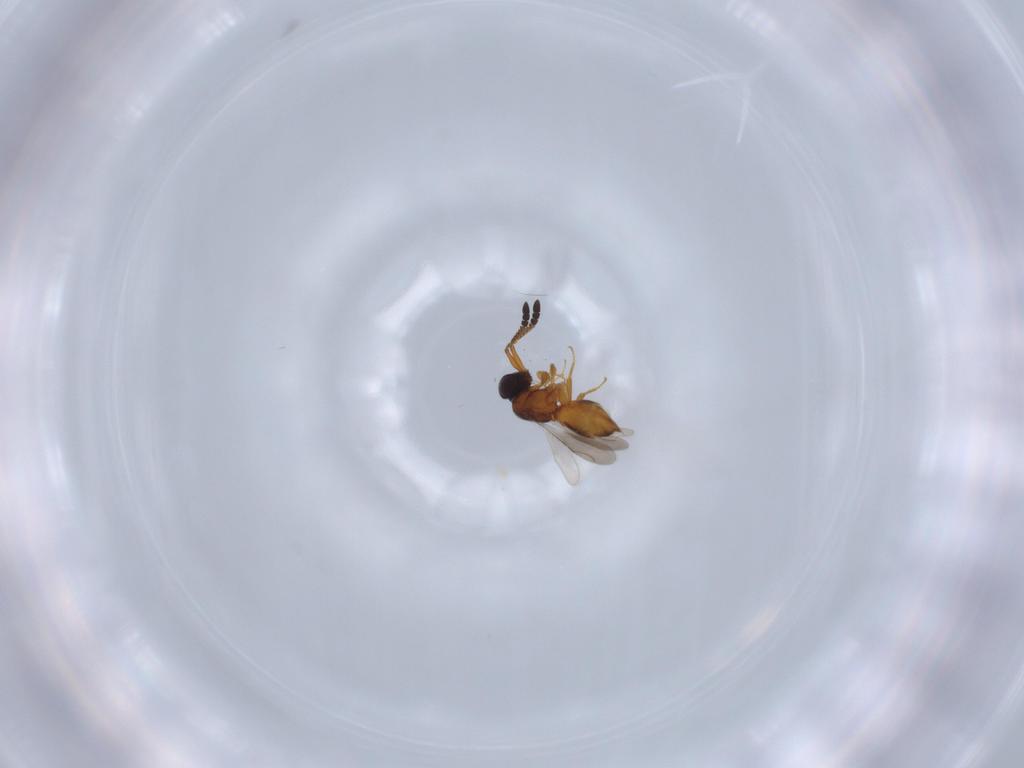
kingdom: Animalia
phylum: Arthropoda
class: Insecta
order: Hymenoptera
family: Ceraphronidae
